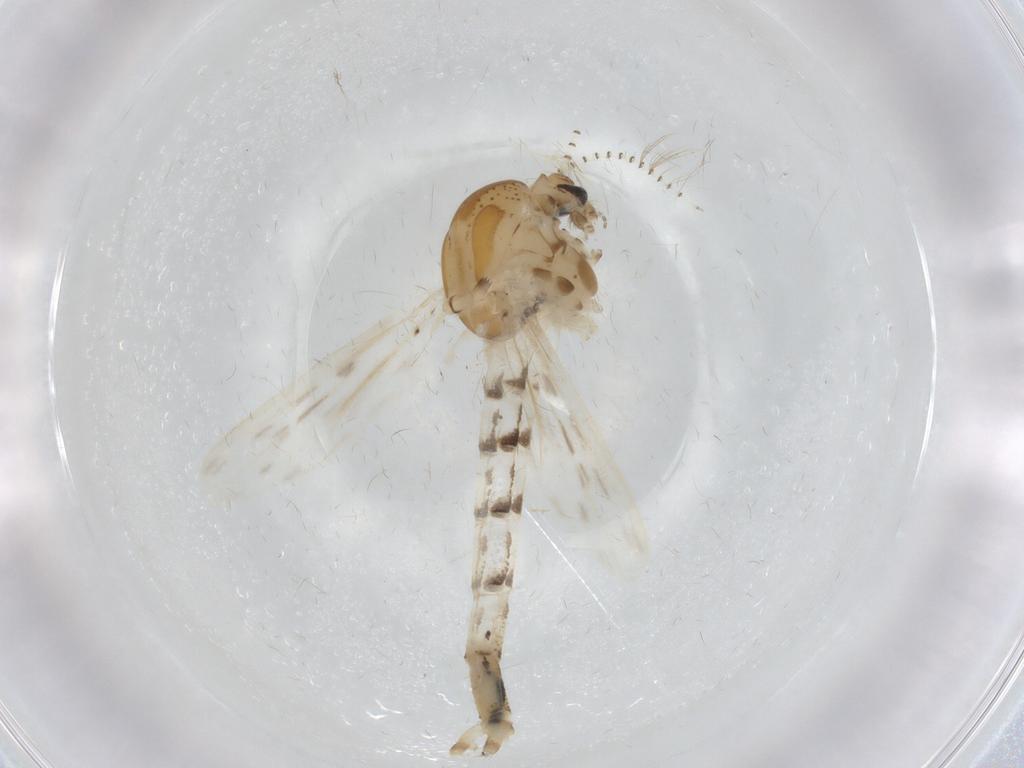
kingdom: Animalia
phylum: Arthropoda
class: Insecta
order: Diptera
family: Chaoboridae
